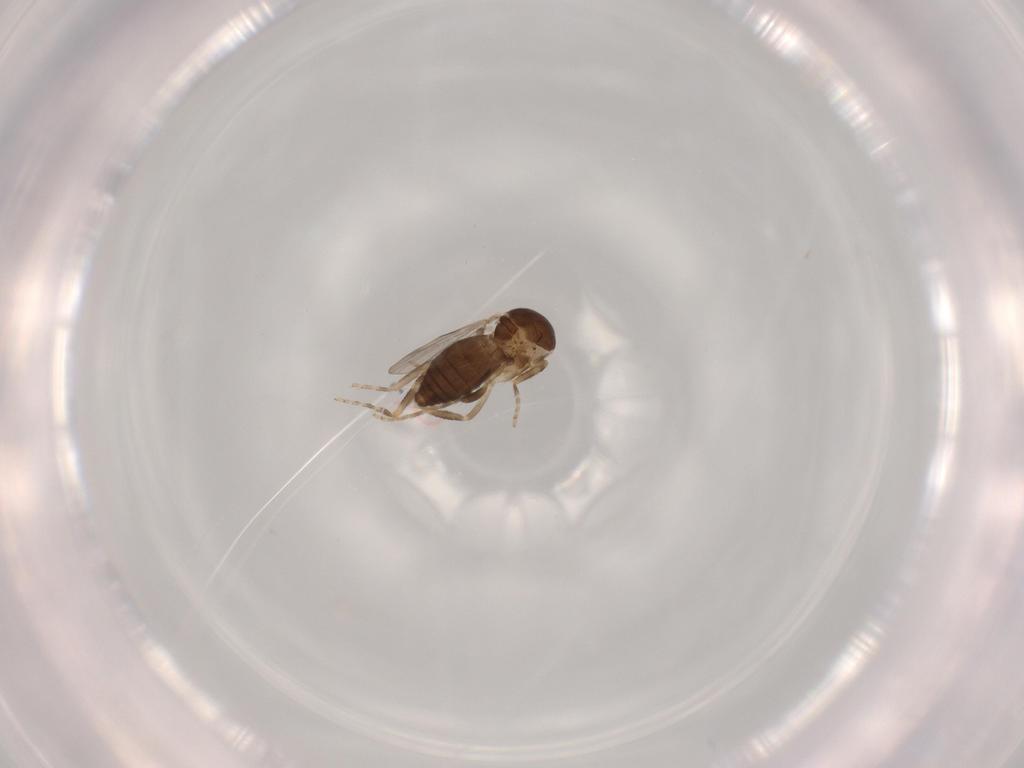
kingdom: Animalia
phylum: Arthropoda
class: Insecta
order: Diptera
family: Ceratopogonidae
